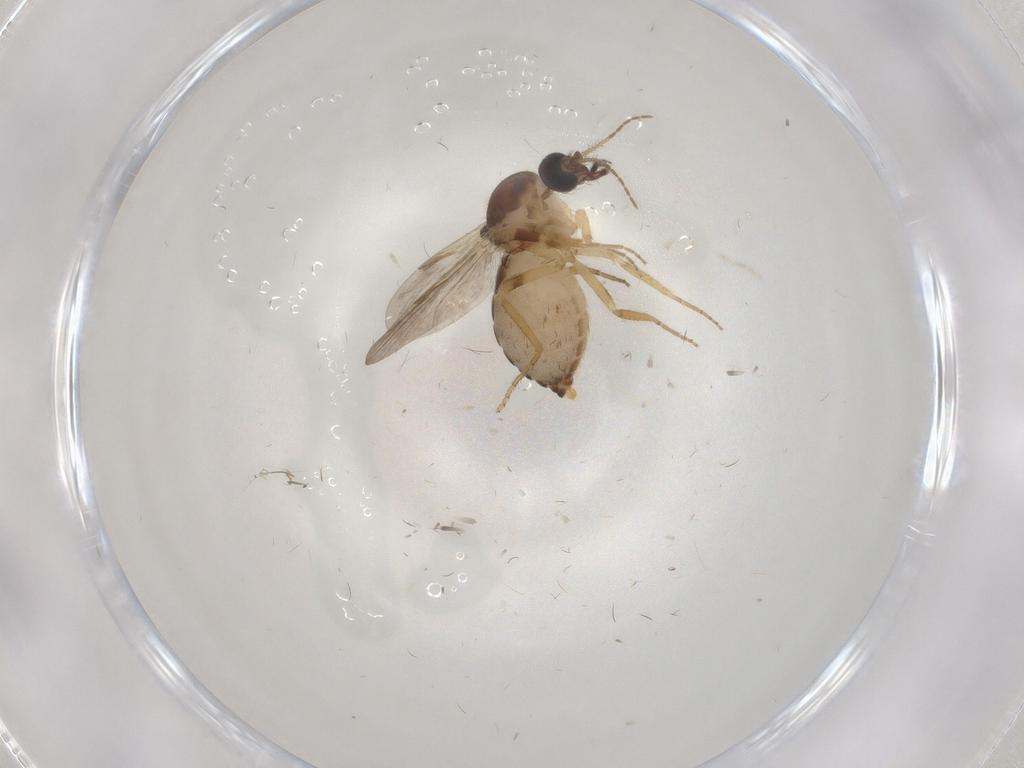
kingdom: Animalia
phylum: Arthropoda
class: Insecta
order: Diptera
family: Ceratopogonidae
